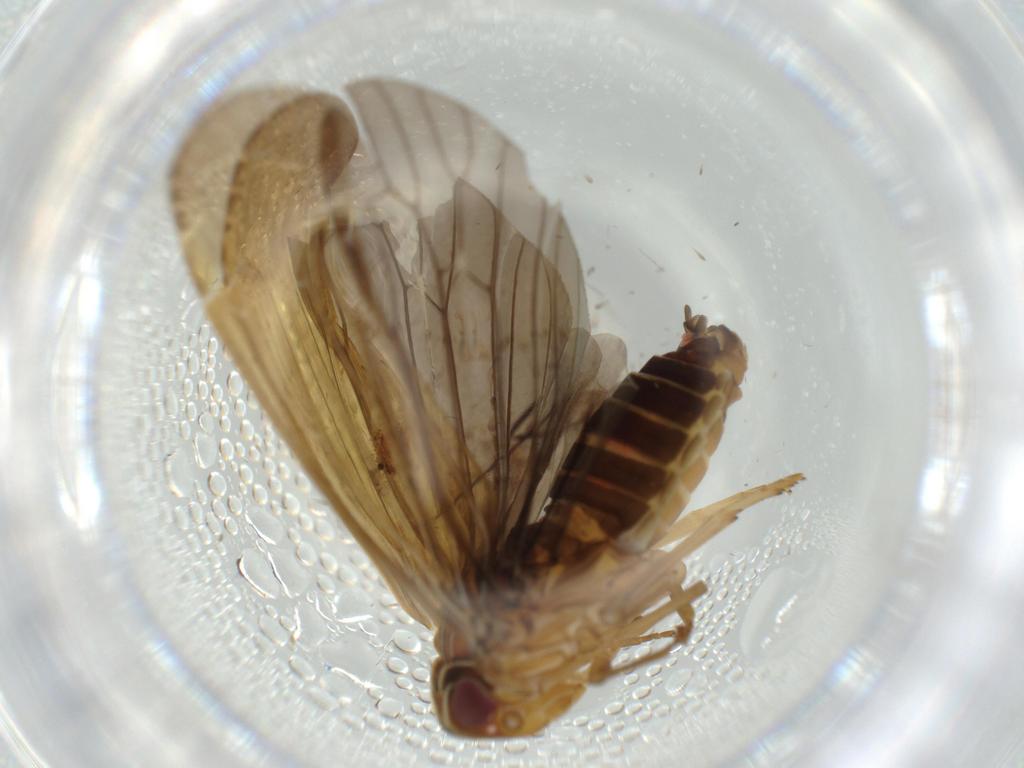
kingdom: Animalia
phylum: Arthropoda
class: Insecta
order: Hemiptera
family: Achilidae
